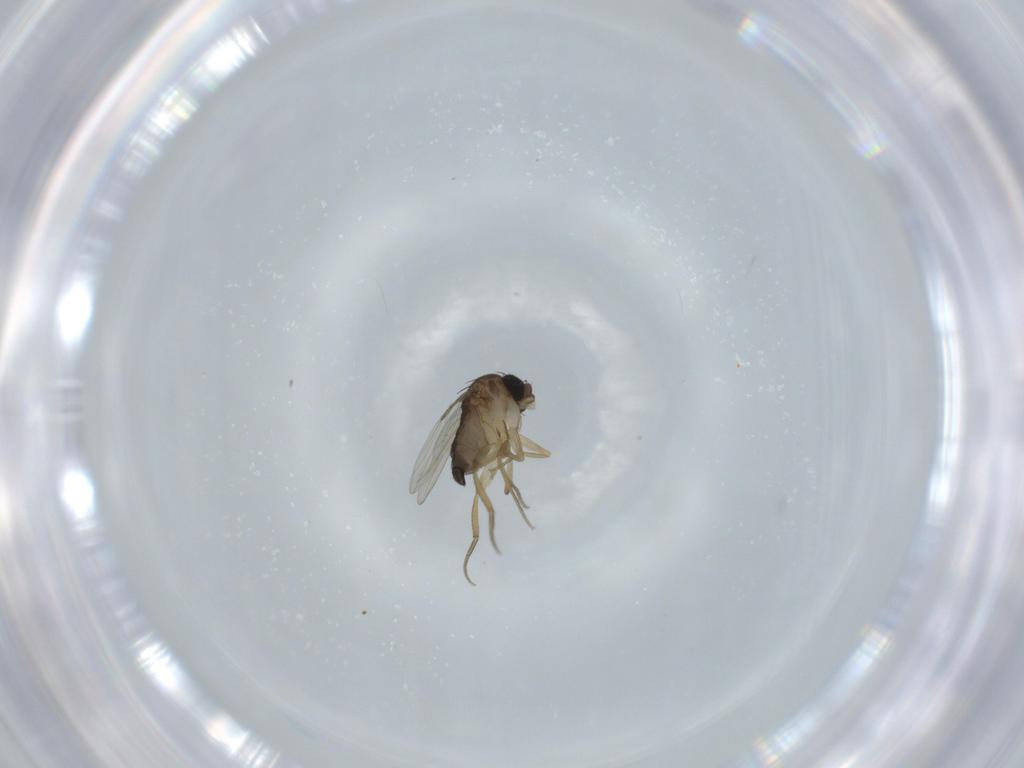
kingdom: Animalia
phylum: Arthropoda
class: Insecta
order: Diptera
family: Phoridae
